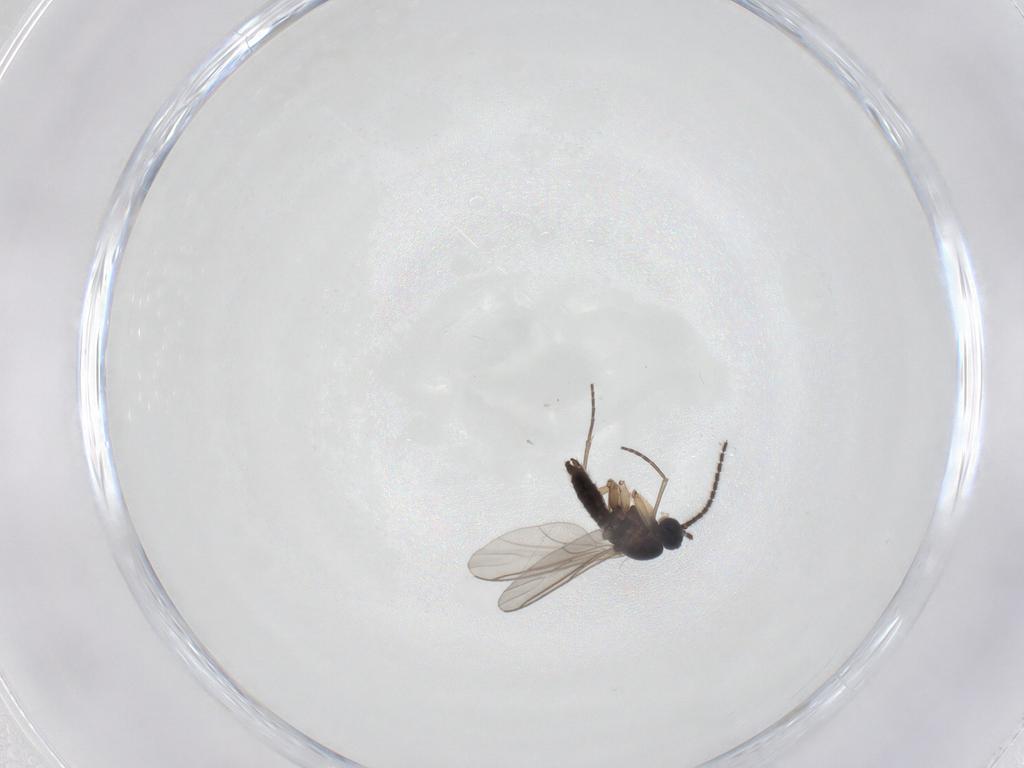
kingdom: Animalia
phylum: Arthropoda
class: Insecta
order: Diptera
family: Sciaridae
